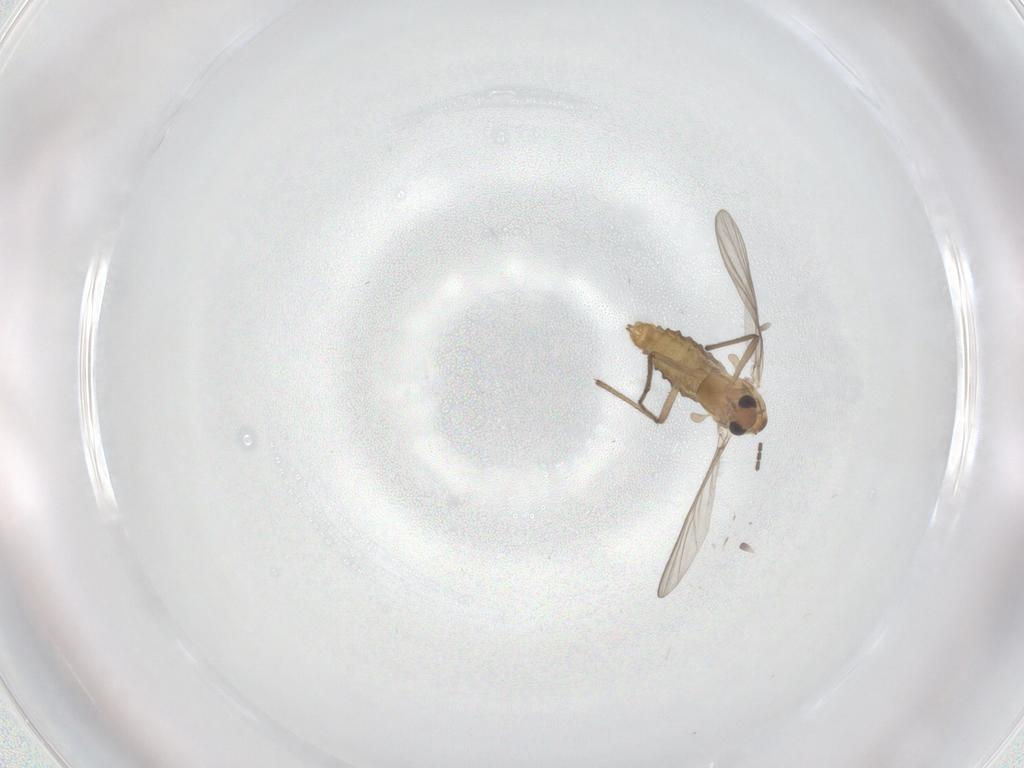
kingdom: Animalia
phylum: Arthropoda
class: Insecta
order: Diptera
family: Chironomidae
